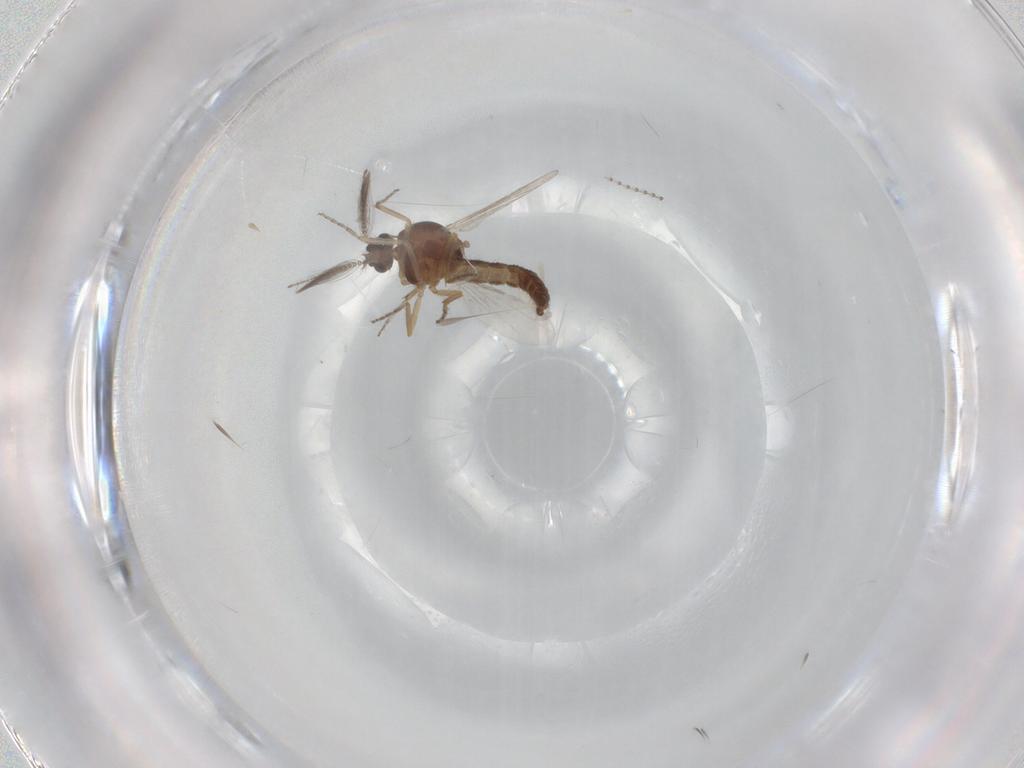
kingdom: Animalia
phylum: Arthropoda
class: Insecta
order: Diptera
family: Ceratopogonidae
